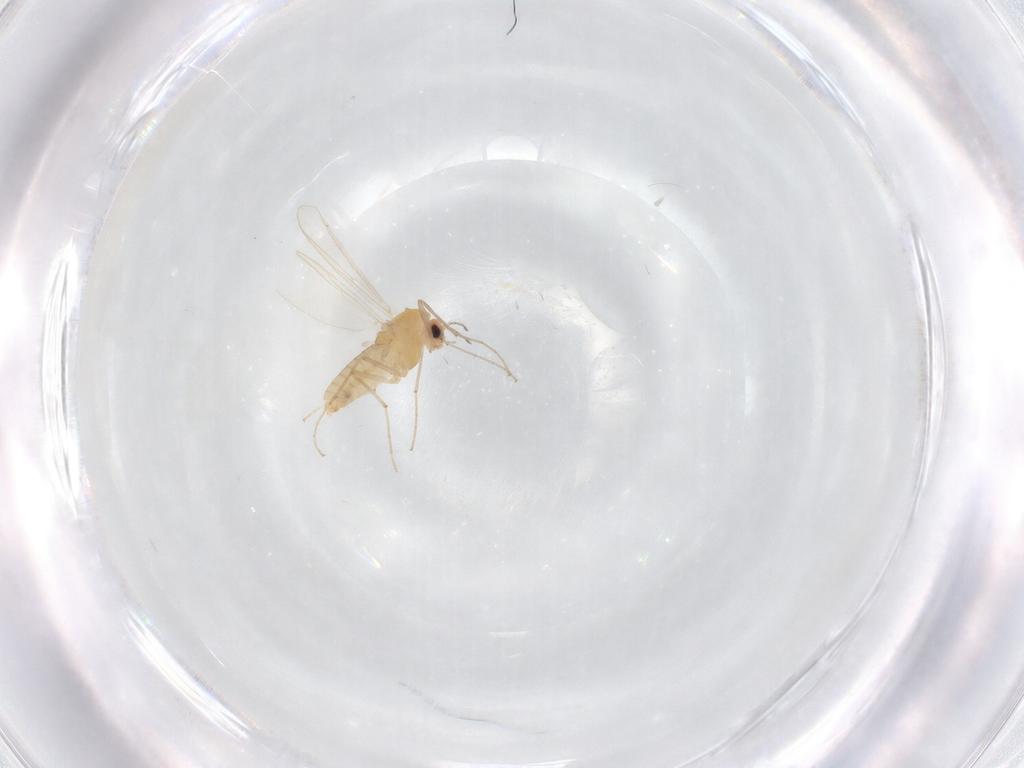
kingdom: Animalia
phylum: Arthropoda
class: Insecta
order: Diptera
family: Chironomidae
